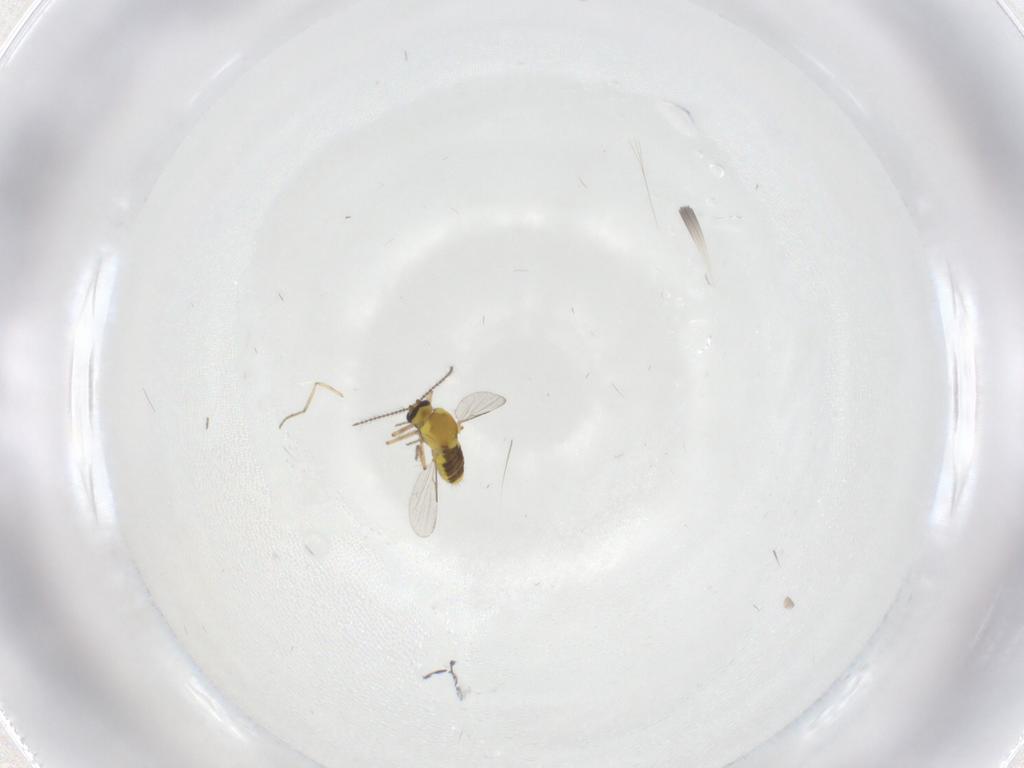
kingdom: Animalia
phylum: Arthropoda
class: Insecta
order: Diptera
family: Ceratopogonidae
